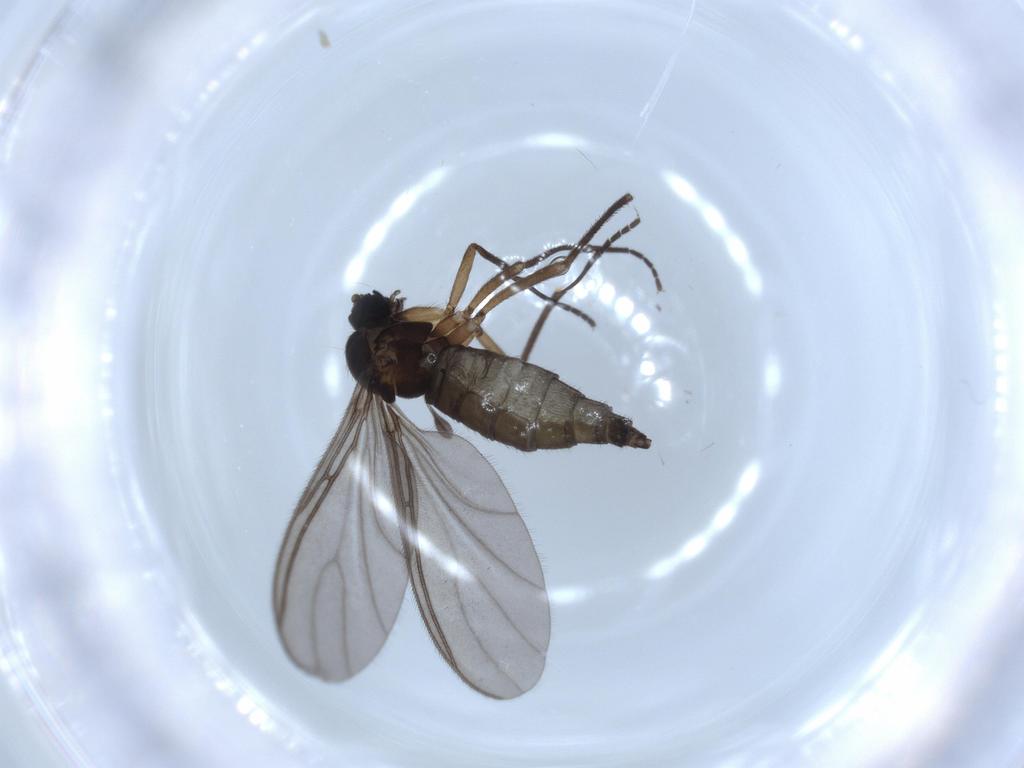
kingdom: Animalia
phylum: Arthropoda
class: Insecta
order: Diptera
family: Sciaridae
